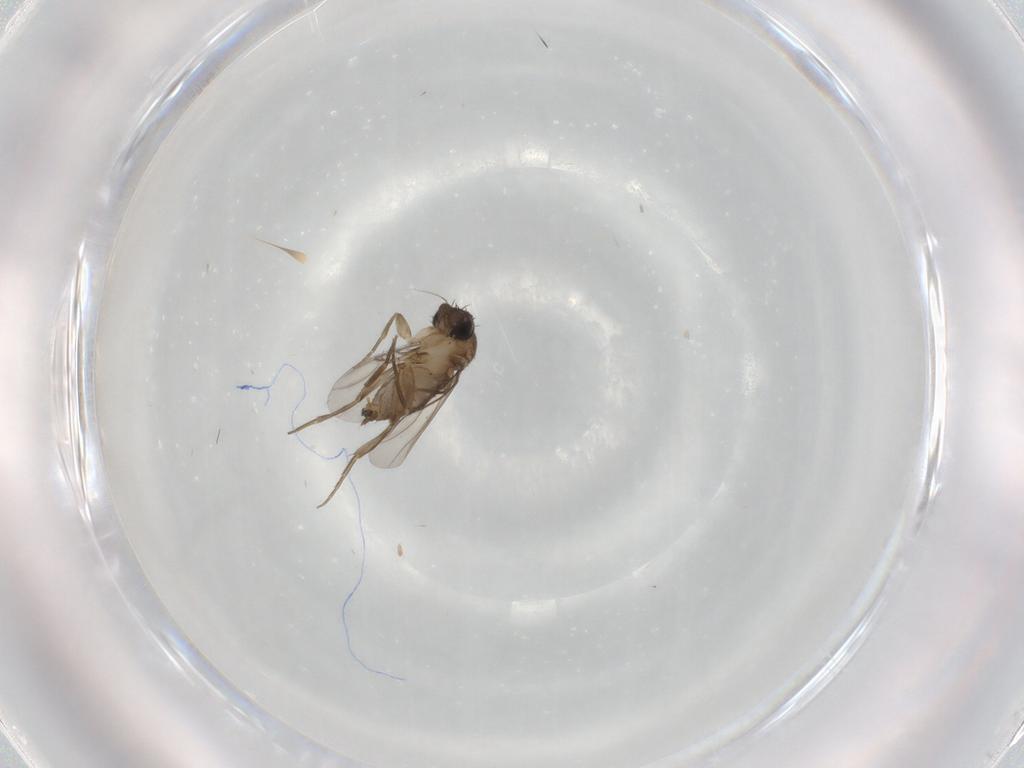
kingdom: Animalia
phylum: Arthropoda
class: Insecta
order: Diptera
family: Phoridae
